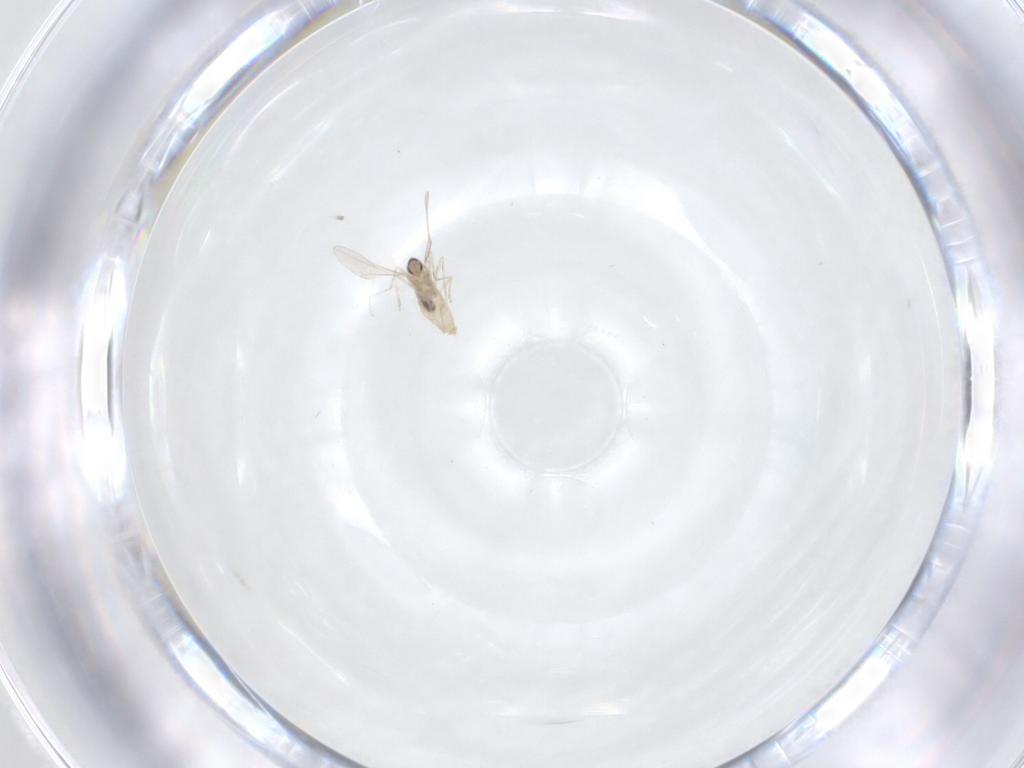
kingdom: Animalia
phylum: Arthropoda
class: Insecta
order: Diptera
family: Cecidomyiidae
